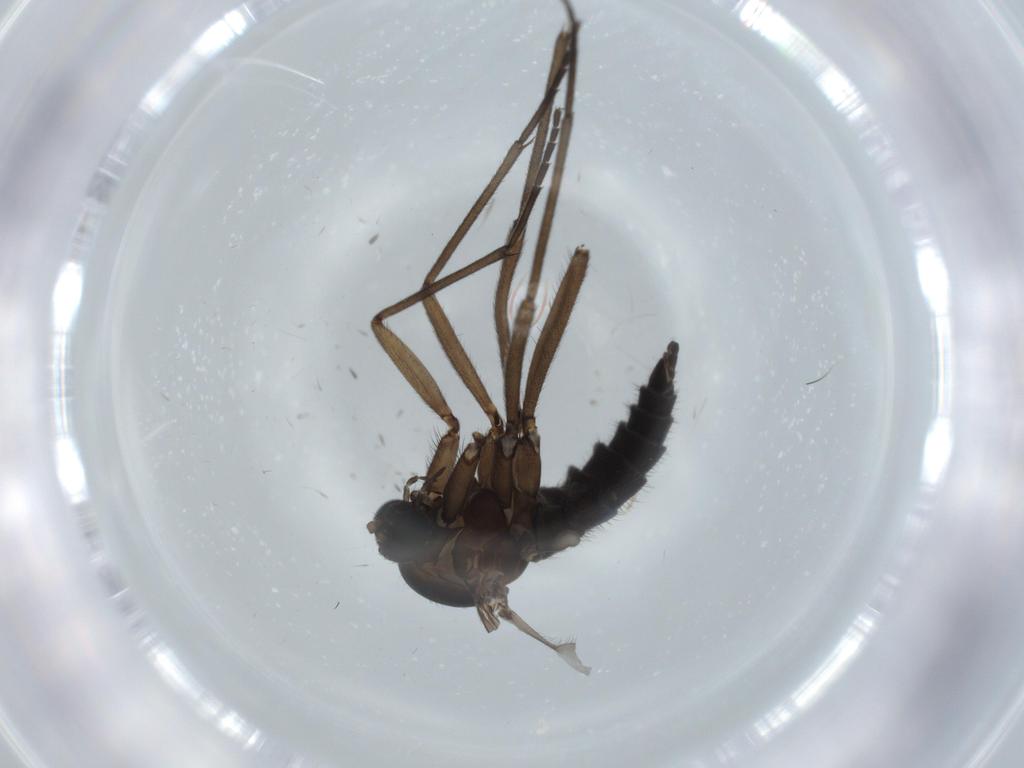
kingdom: Animalia
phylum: Arthropoda
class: Insecta
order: Diptera
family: Sciaridae
